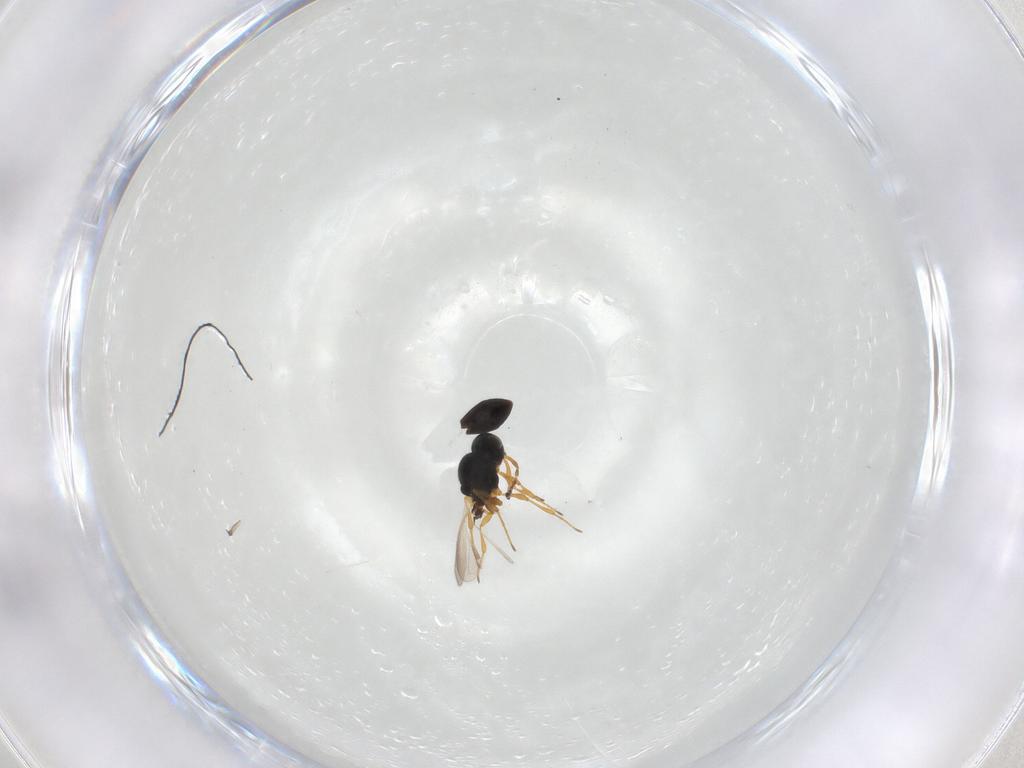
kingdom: Animalia
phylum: Arthropoda
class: Insecta
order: Hymenoptera
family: Platygastridae
